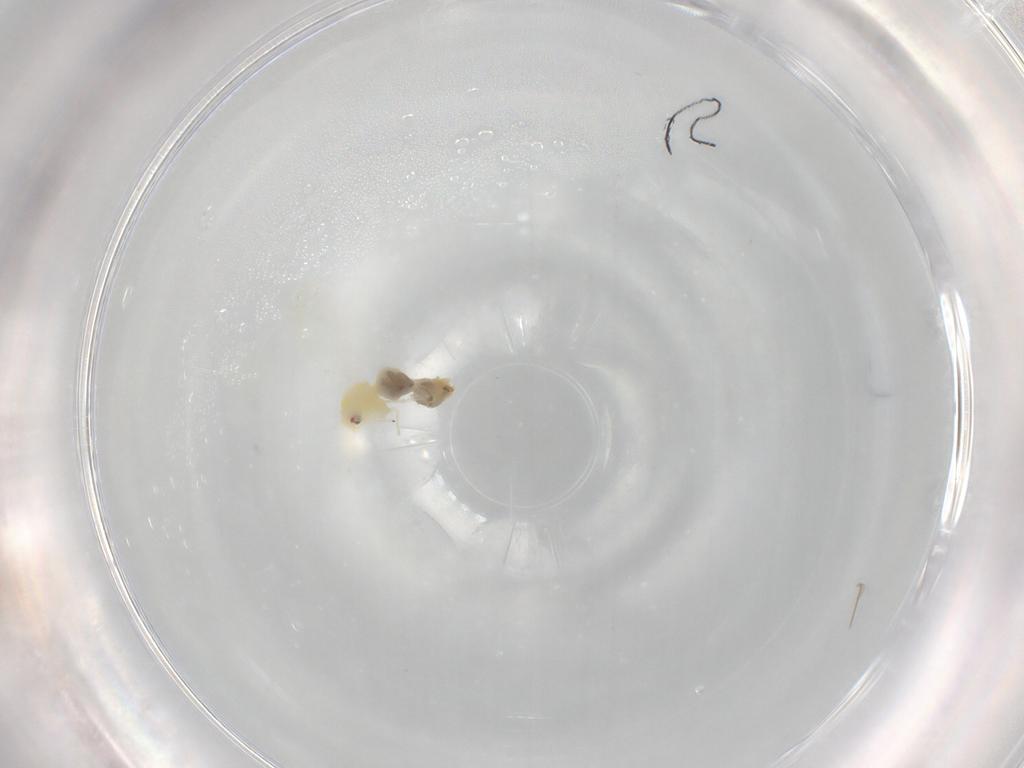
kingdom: Animalia
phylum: Arthropoda
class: Insecta
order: Hemiptera
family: Aleyrodidae
